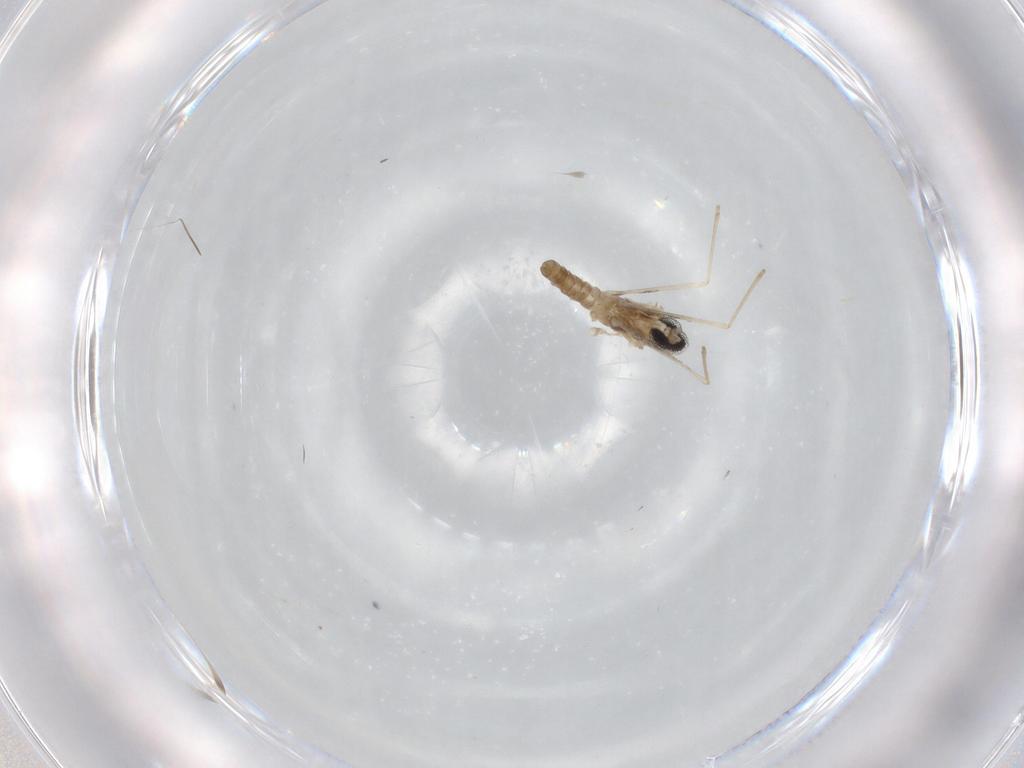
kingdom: Animalia
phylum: Arthropoda
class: Insecta
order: Diptera
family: Cecidomyiidae
